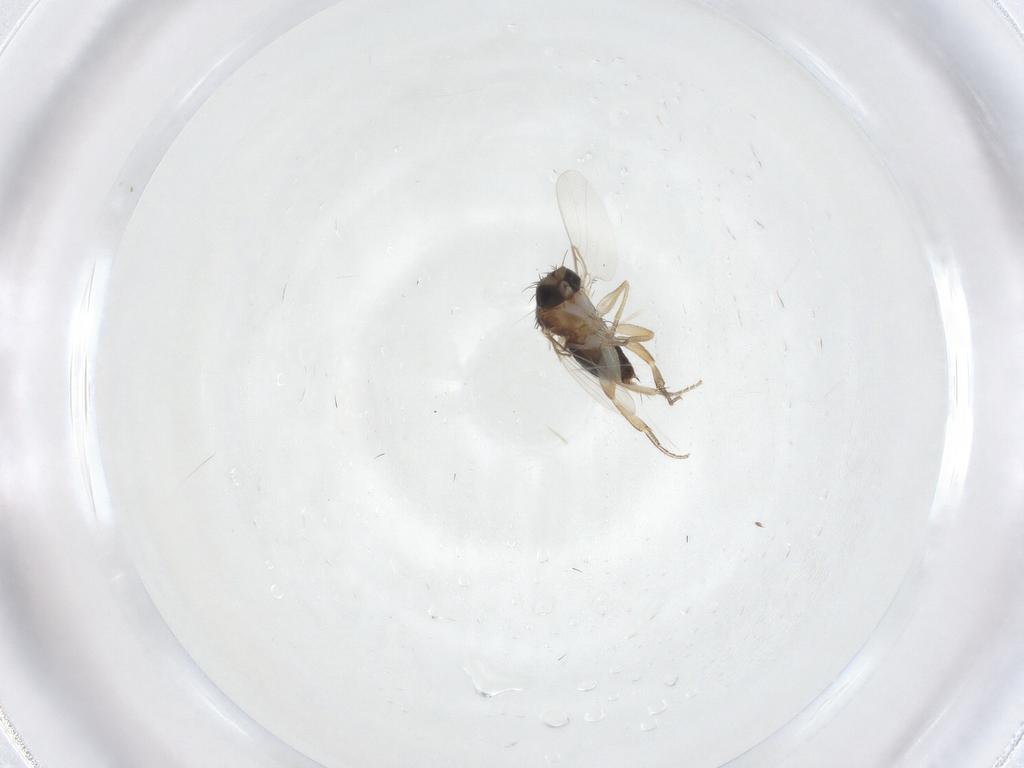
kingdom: Animalia
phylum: Arthropoda
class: Insecta
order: Diptera
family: Phoridae
